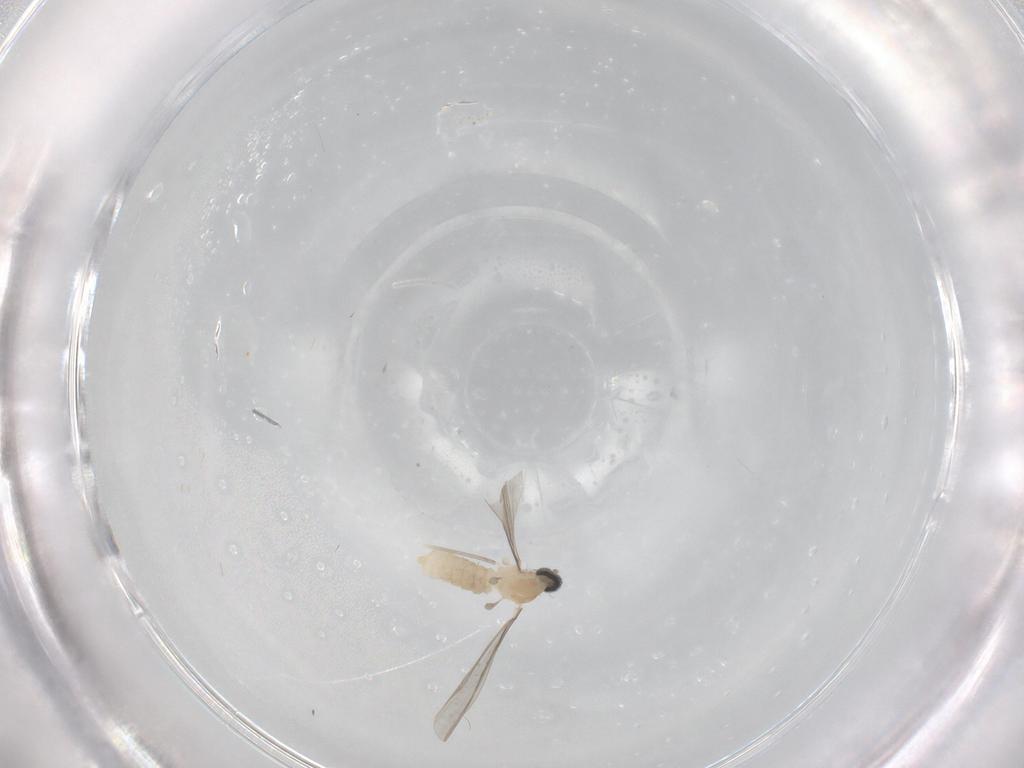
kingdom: Animalia
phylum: Arthropoda
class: Insecta
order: Diptera
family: Cecidomyiidae
